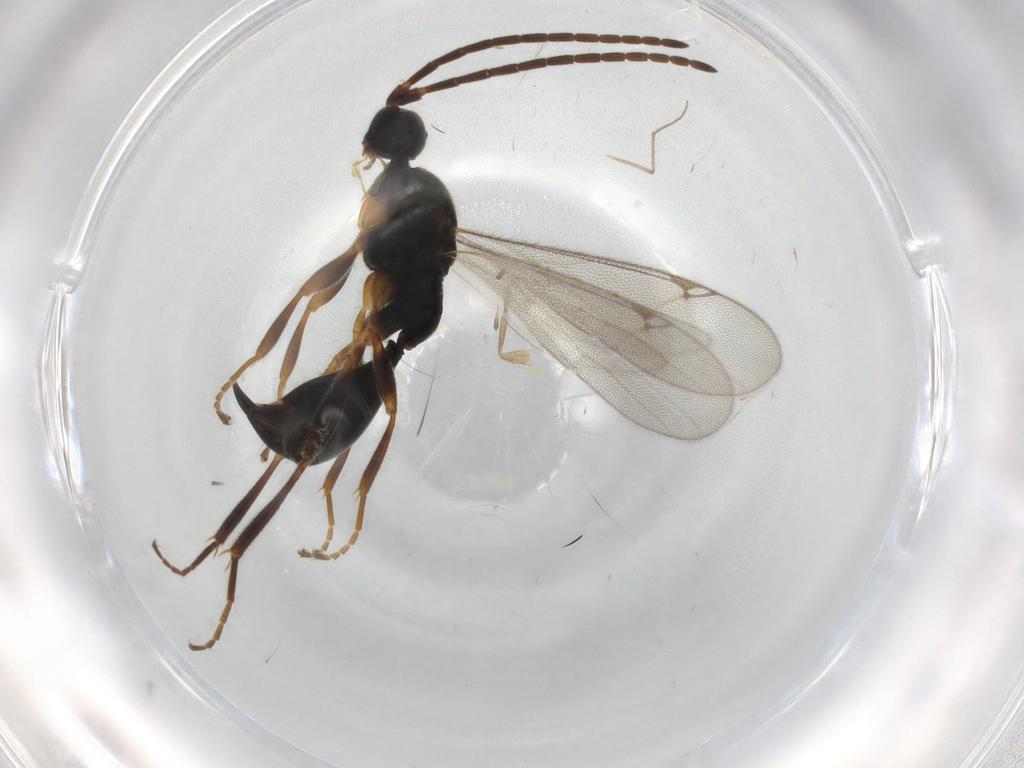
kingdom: Animalia
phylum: Arthropoda
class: Insecta
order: Hymenoptera
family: Proctotrupidae
